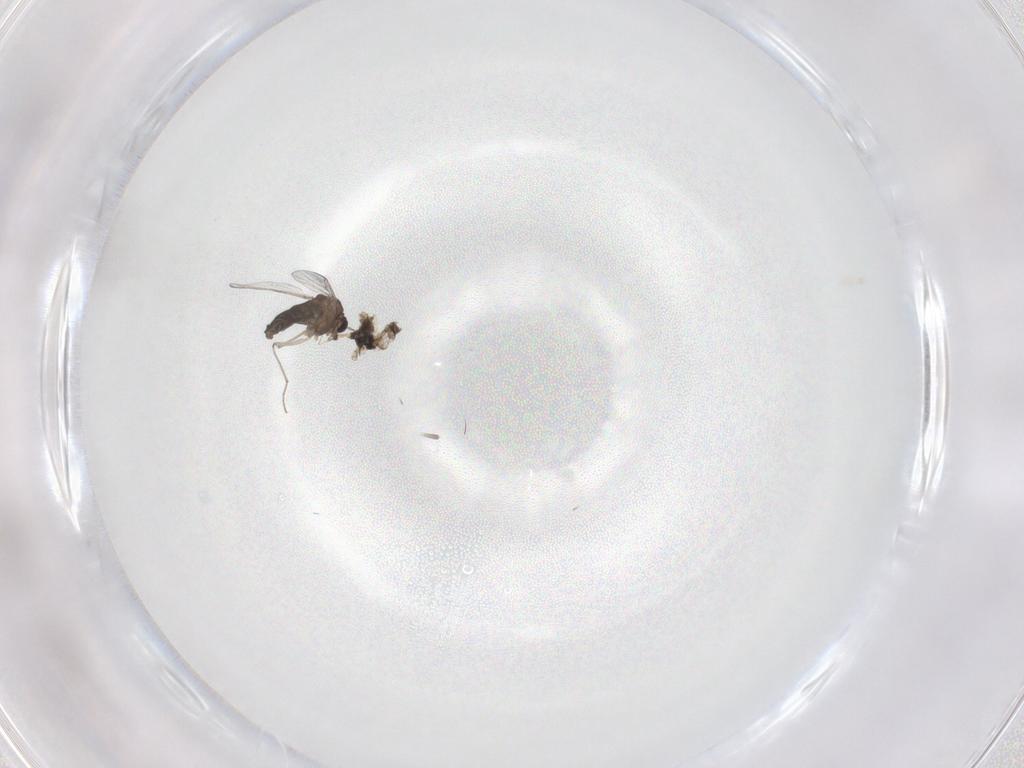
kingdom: Animalia
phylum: Arthropoda
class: Insecta
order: Diptera
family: Chironomidae
